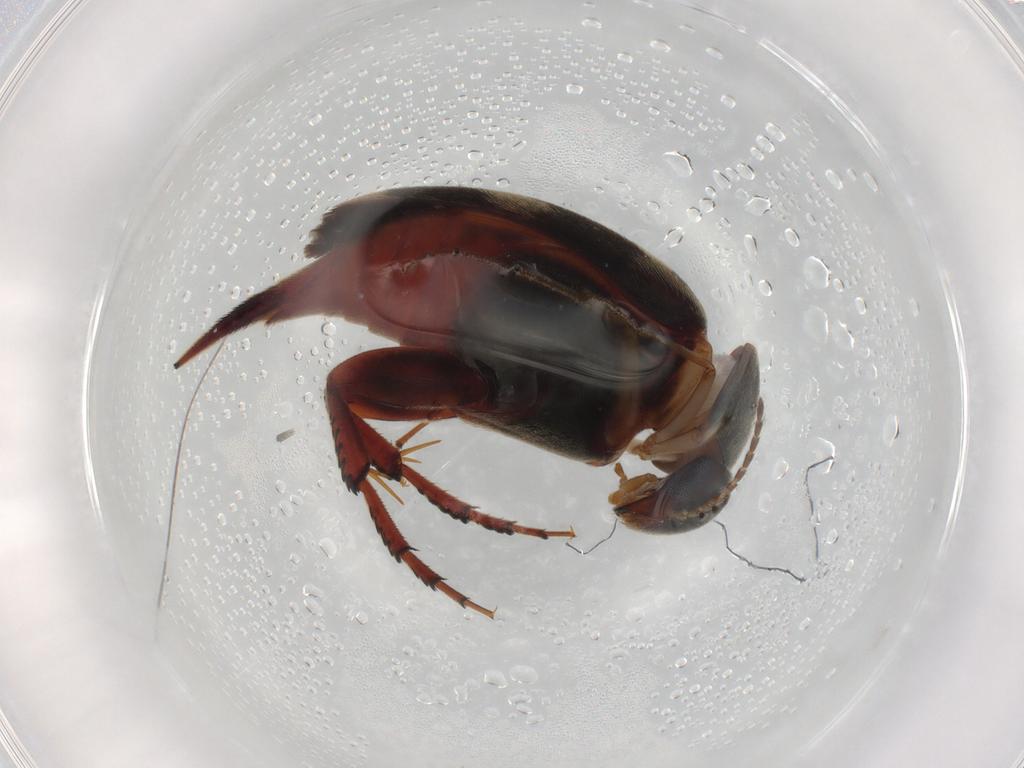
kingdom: Animalia
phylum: Arthropoda
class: Insecta
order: Coleoptera
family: Mordellidae
